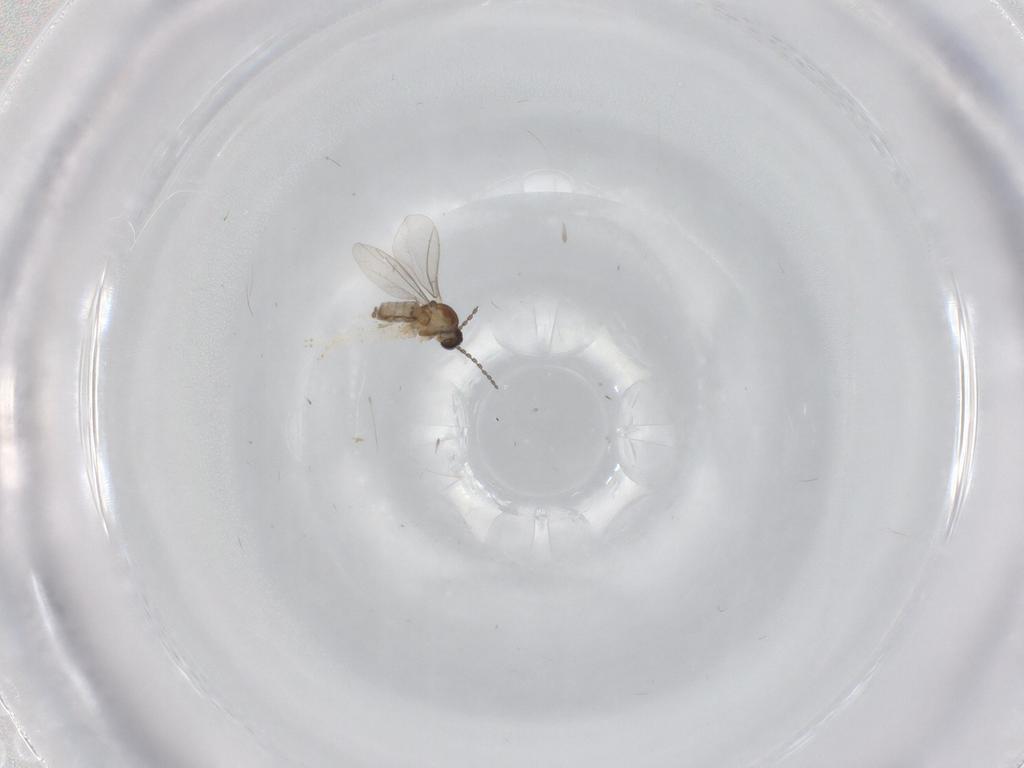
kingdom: Animalia
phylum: Arthropoda
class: Insecta
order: Diptera
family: Cecidomyiidae
